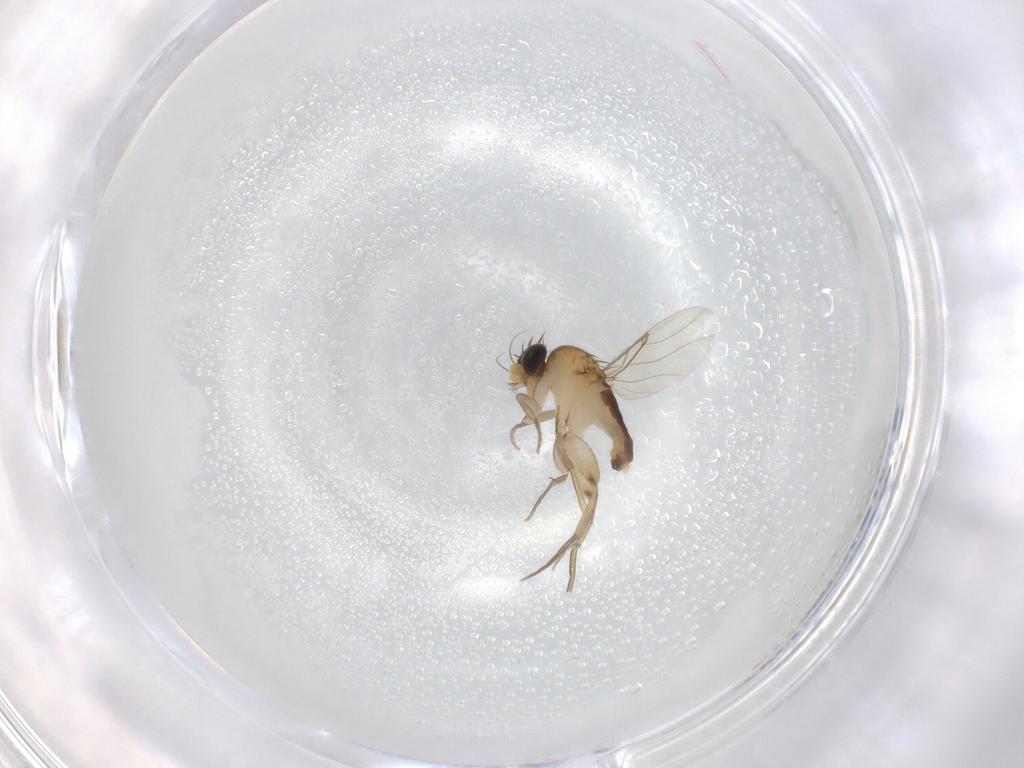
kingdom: Animalia
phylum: Arthropoda
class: Insecta
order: Diptera
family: Phoridae
